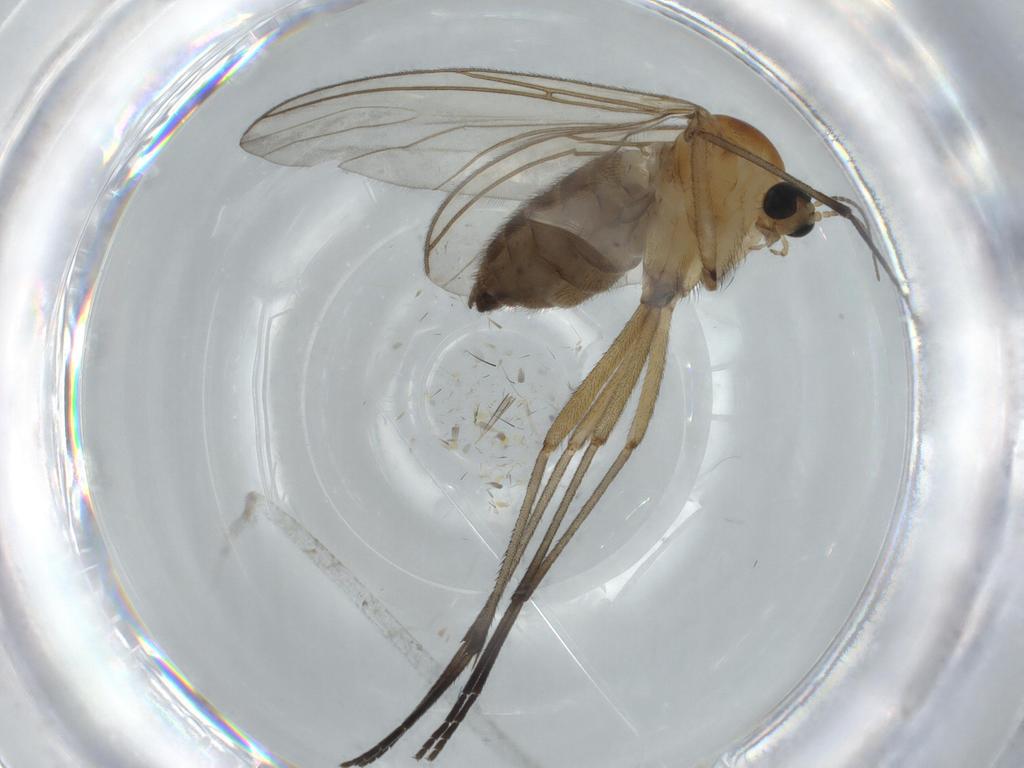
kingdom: Animalia
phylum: Arthropoda
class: Insecta
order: Diptera
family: Sciaridae
